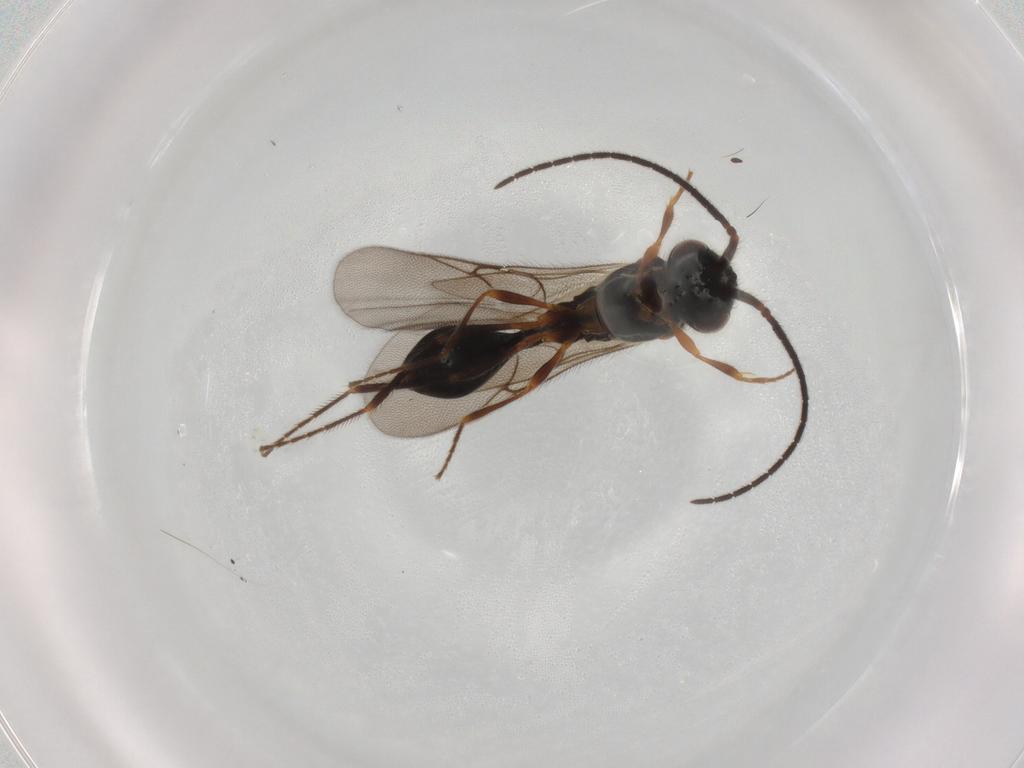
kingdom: Animalia
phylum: Arthropoda
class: Insecta
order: Hymenoptera
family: Diapriidae
